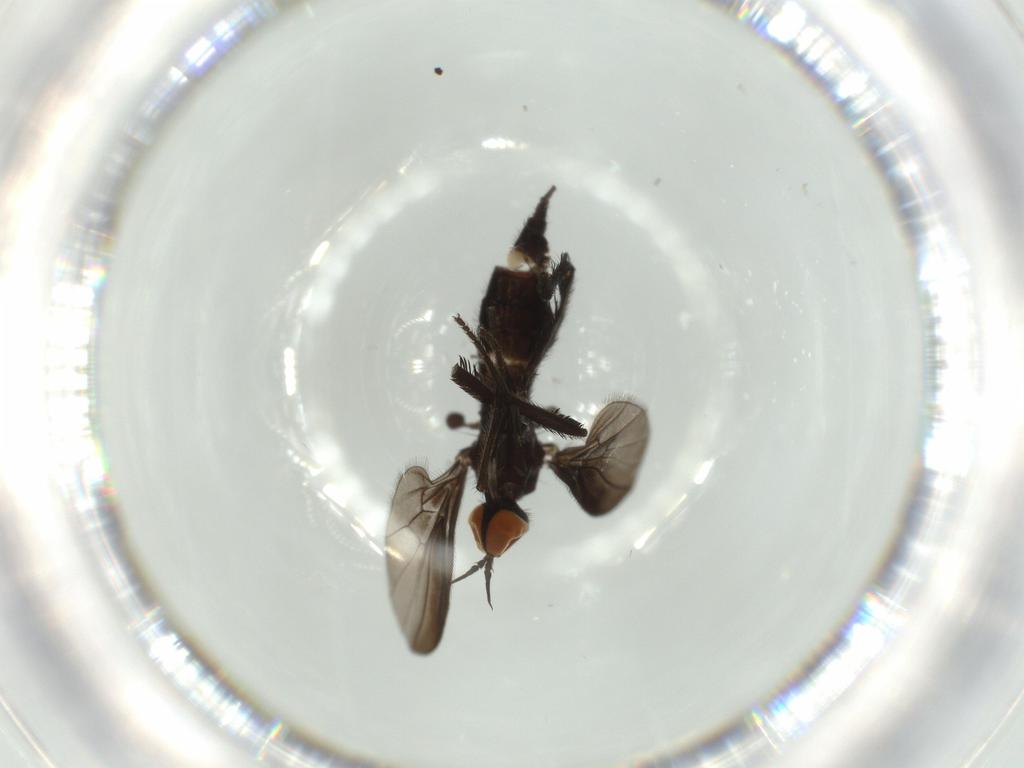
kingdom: Animalia
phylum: Arthropoda
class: Insecta
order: Diptera
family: Empididae
